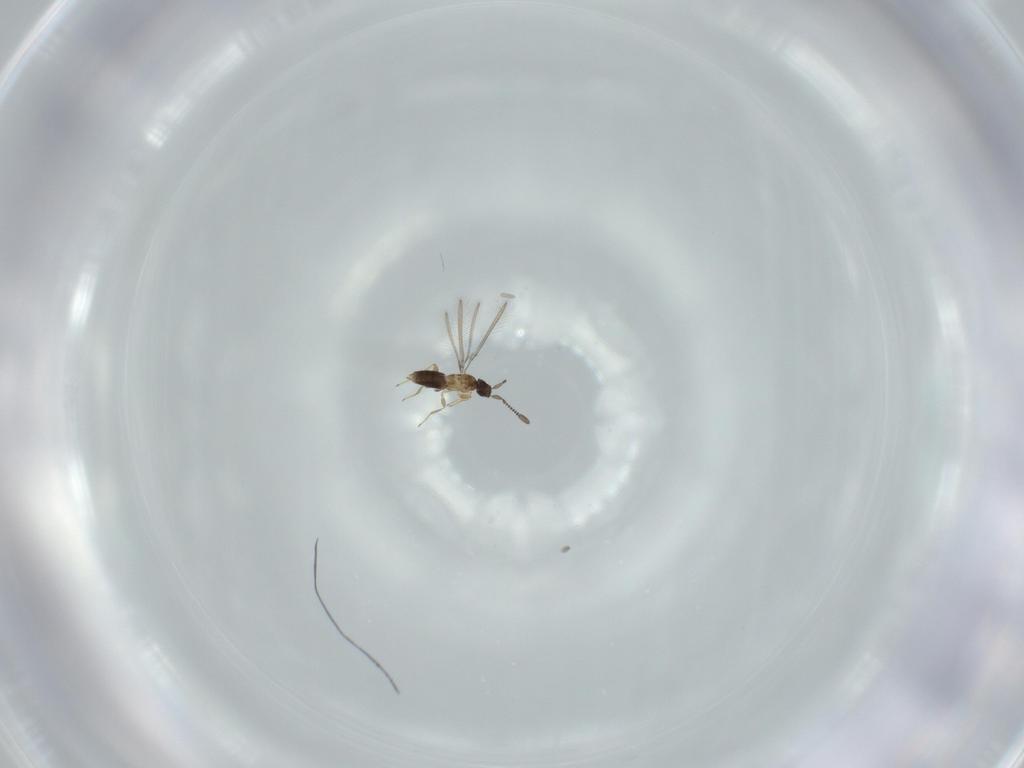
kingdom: Animalia
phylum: Arthropoda
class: Insecta
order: Hymenoptera
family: Mymaridae
